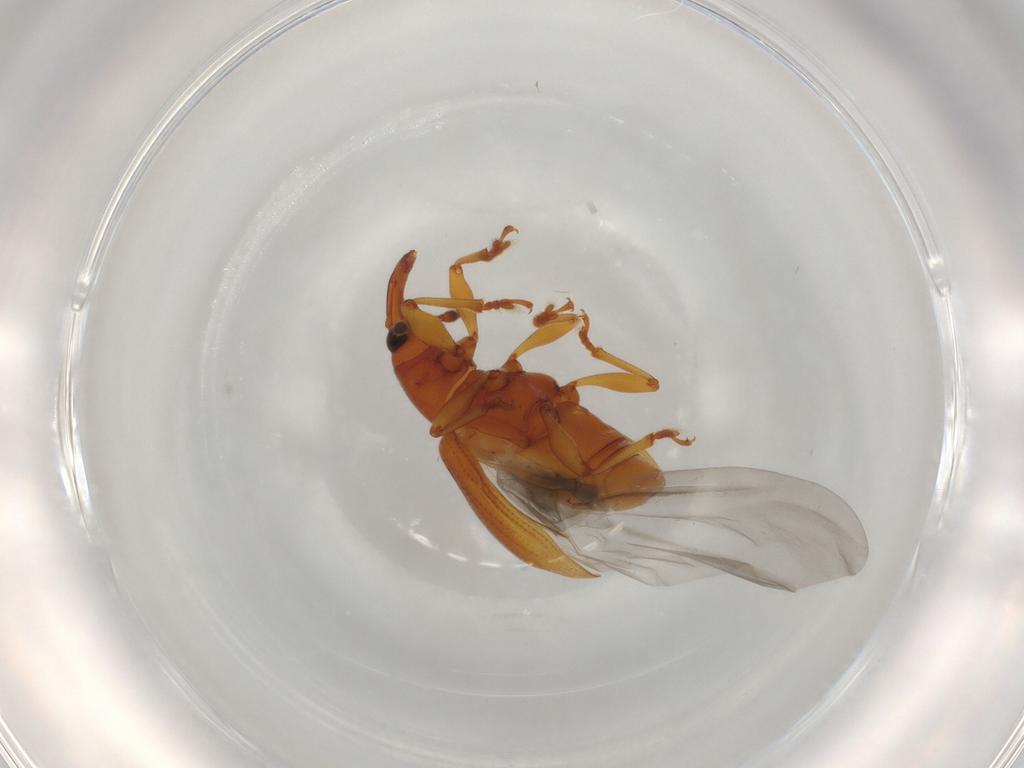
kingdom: Animalia
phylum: Arthropoda
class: Insecta
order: Coleoptera
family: Curculionidae
